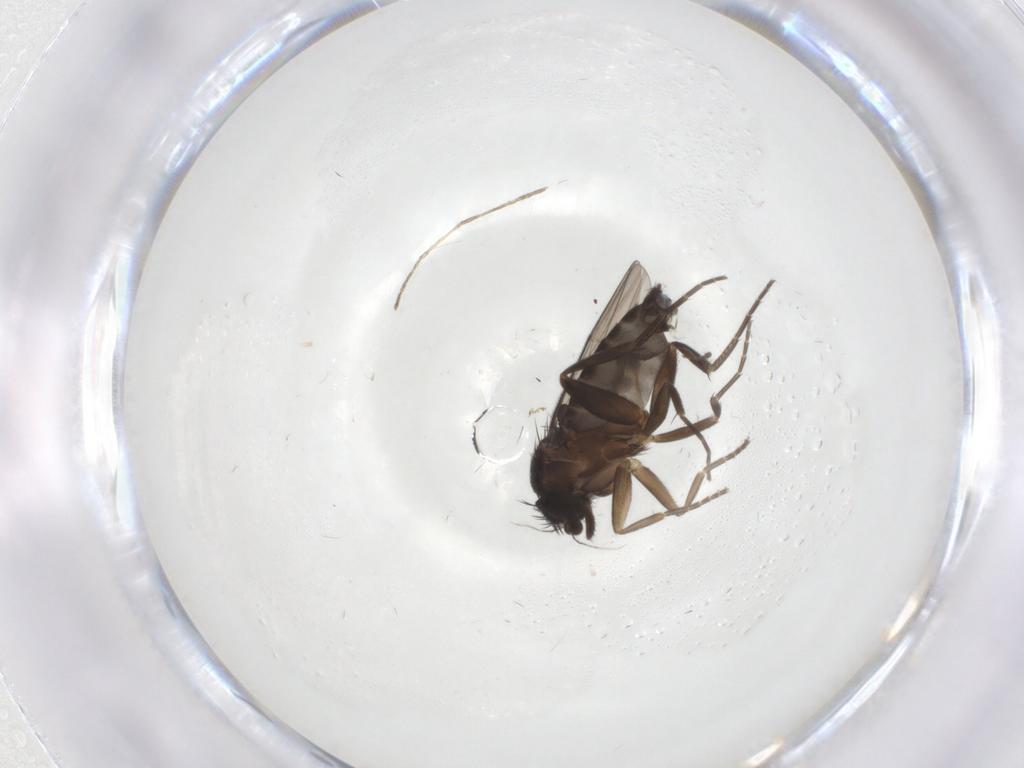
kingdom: Animalia
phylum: Arthropoda
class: Insecta
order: Diptera
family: Phoridae
